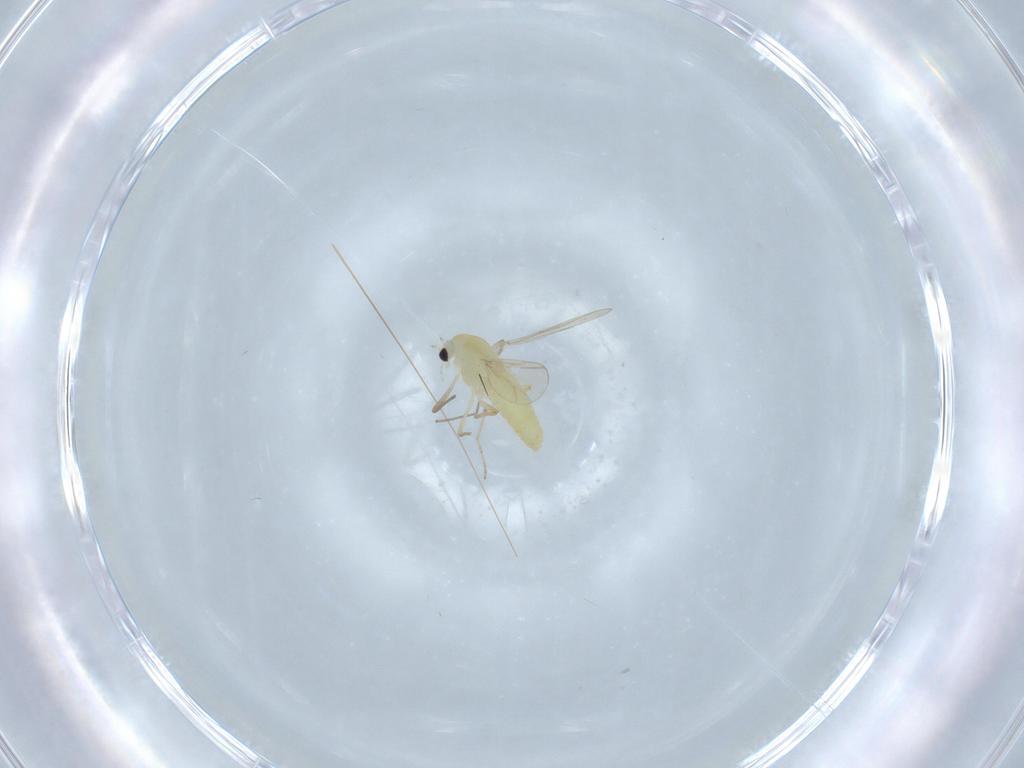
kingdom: Animalia
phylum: Arthropoda
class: Insecta
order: Diptera
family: Chironomidae
